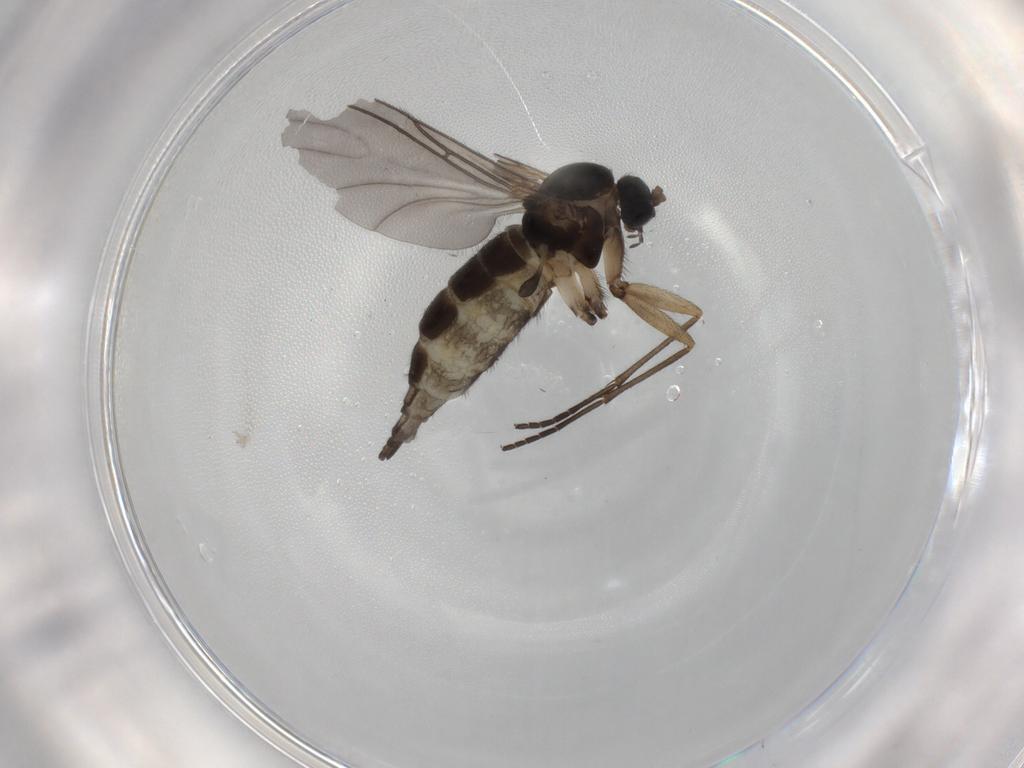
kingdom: Animalia
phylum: Arthropoda
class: Insecta
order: Diptera
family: Sciaridae
